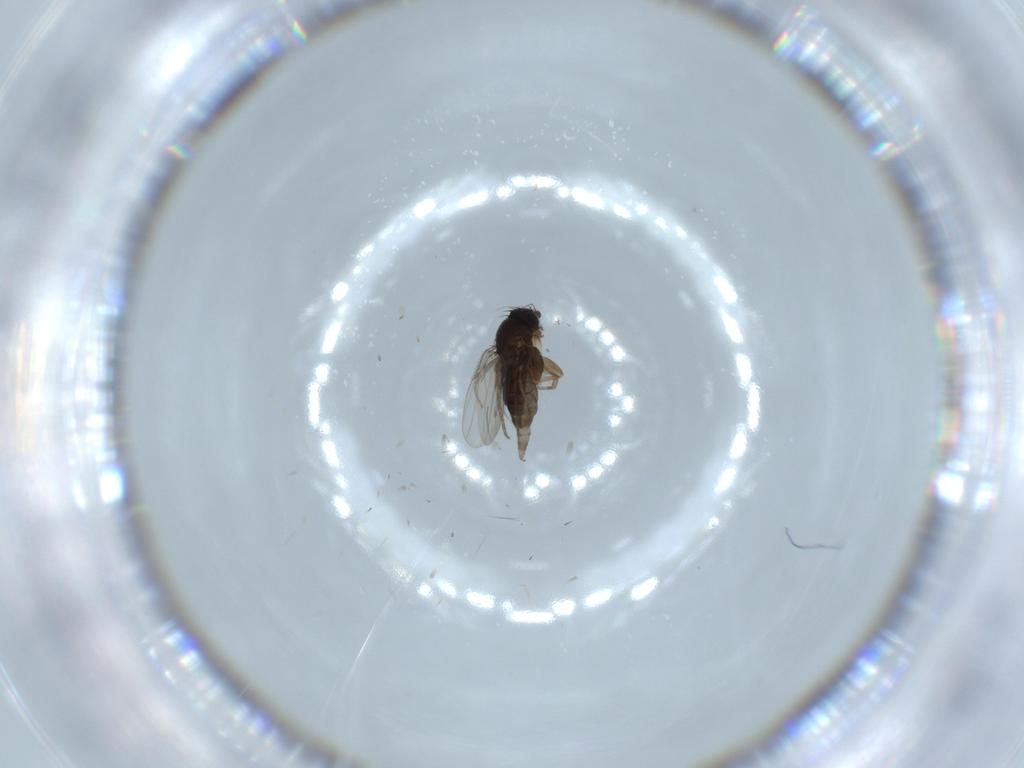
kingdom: Animalia
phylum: Arthropoda
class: Insecta
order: Diptera
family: Phoridae
